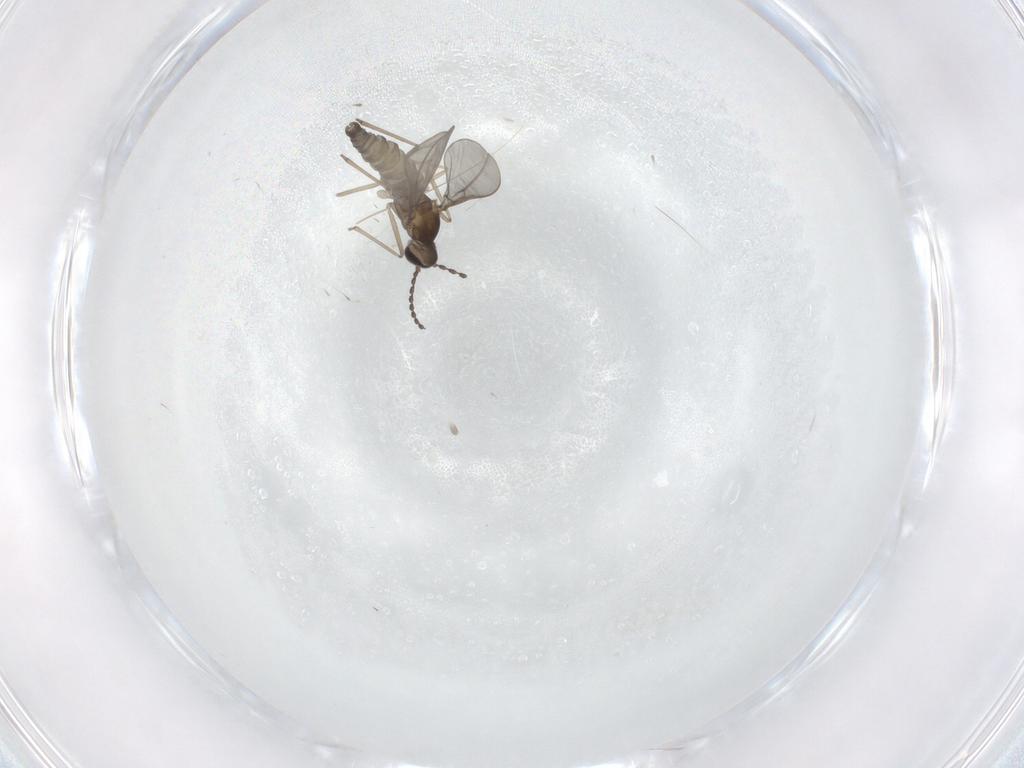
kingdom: Animalia
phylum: Arthropoda
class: Insecta
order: Diptera
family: Cecidomyiidae
